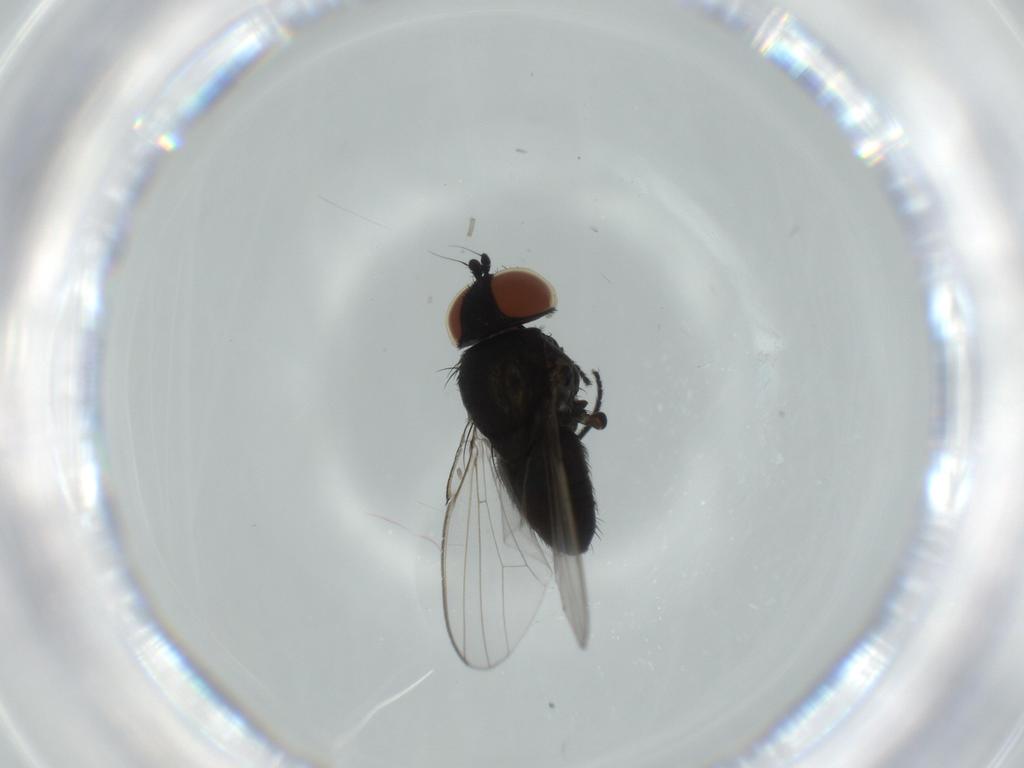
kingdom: Animalia
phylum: Arthropoda
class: Insecta
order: Diptera
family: Milichiidae
